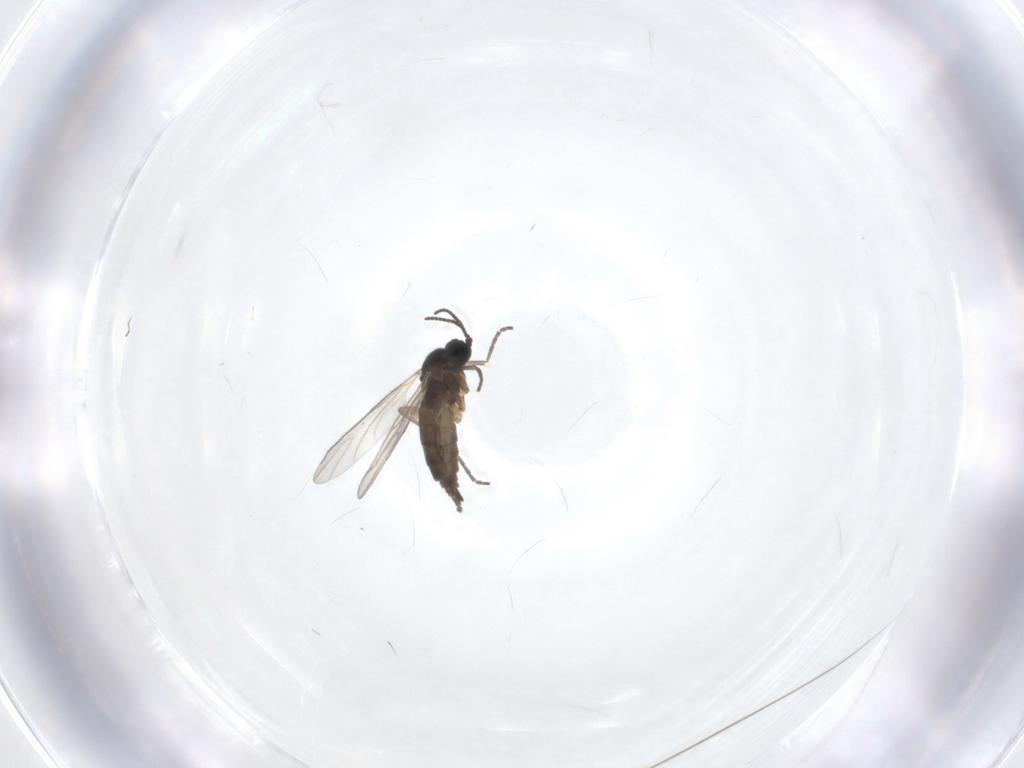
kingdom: Animalia
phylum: Arthropoda
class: Insecta
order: Diptera
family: Sciaridae
